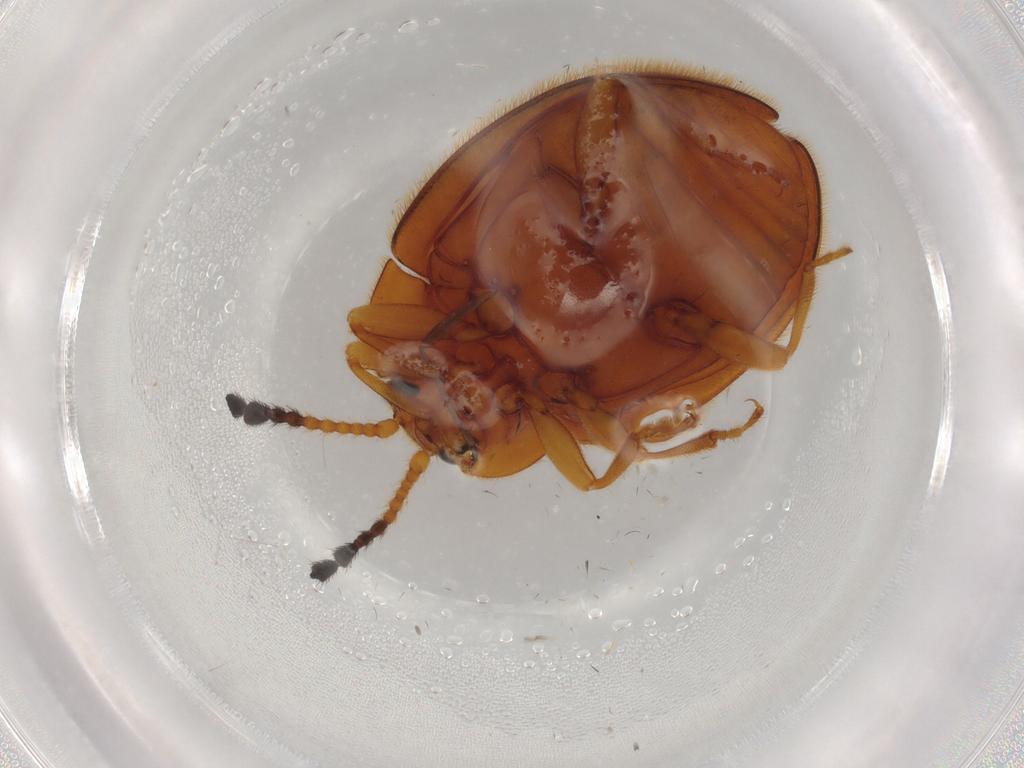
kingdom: Animalia
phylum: Arthropoda
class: Insecta
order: Coleoptera
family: Endomychidae
